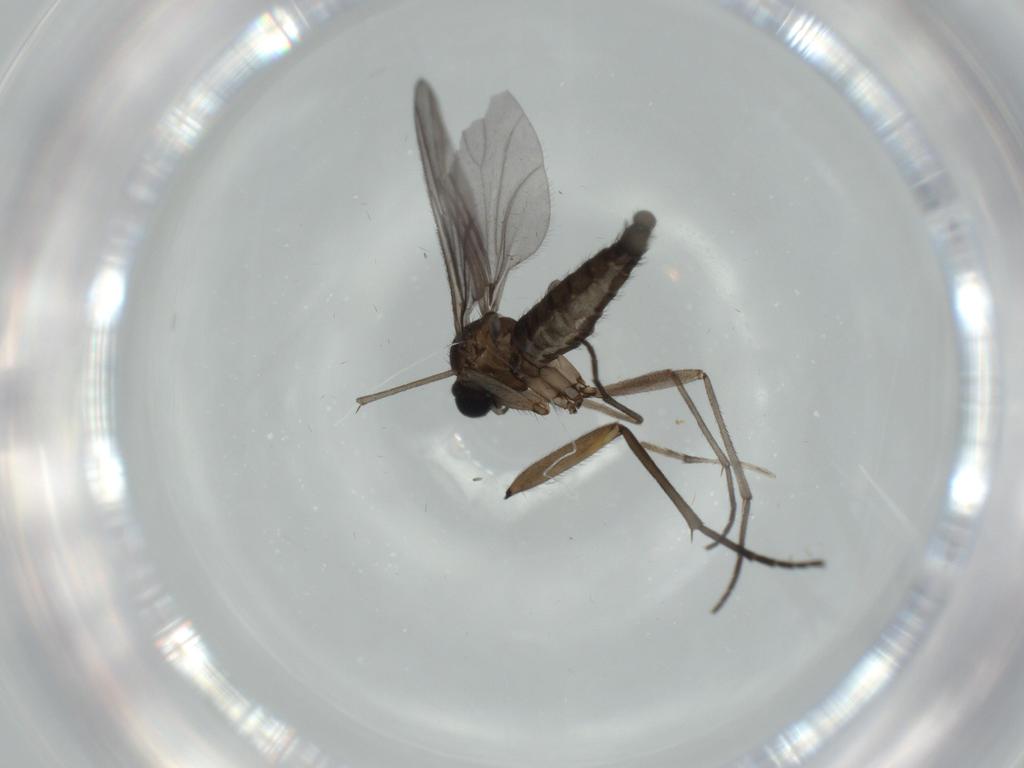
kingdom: Animalia
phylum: Arthropoda
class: Insecta
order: Diptera
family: Sciaridae
